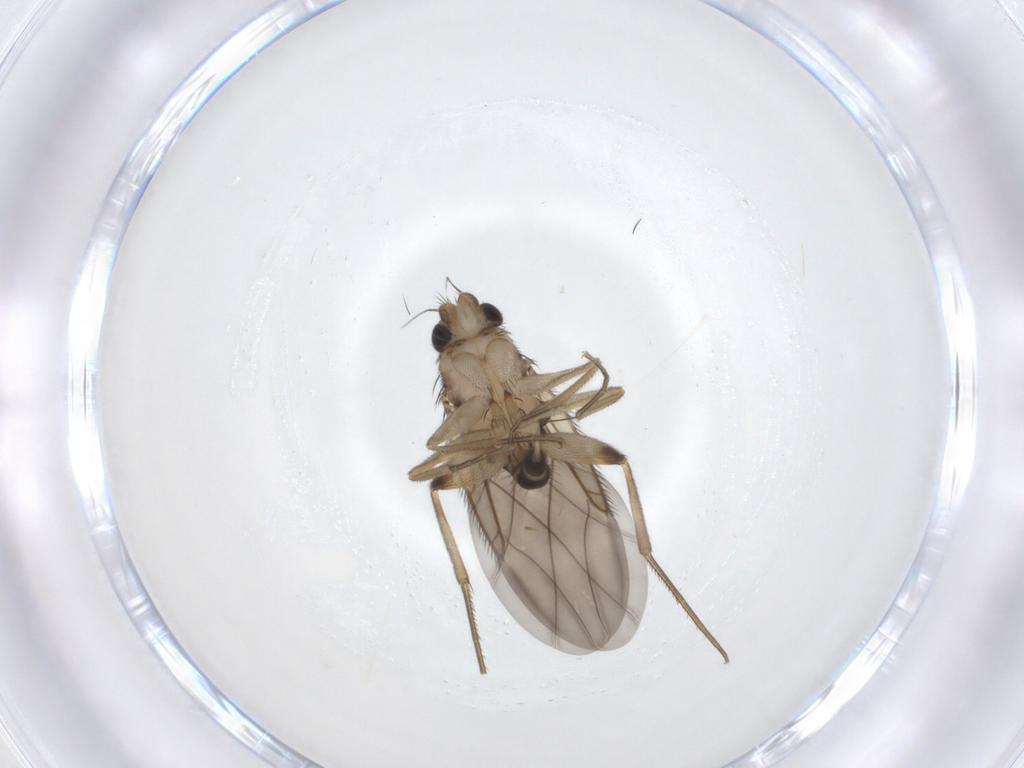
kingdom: Animalia
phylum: Arthropoda
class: Insecta
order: Diptera
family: Phoridae
